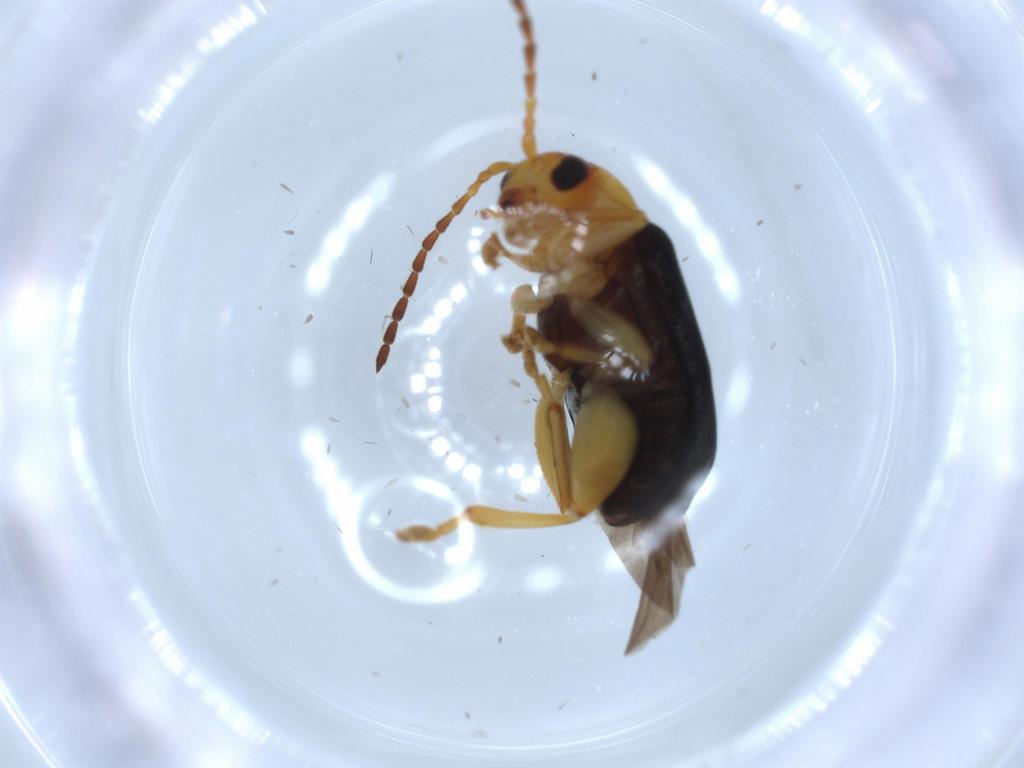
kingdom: Animalia
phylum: Arthropoda
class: Insecta
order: Coleoptera
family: Chrysomelidae
